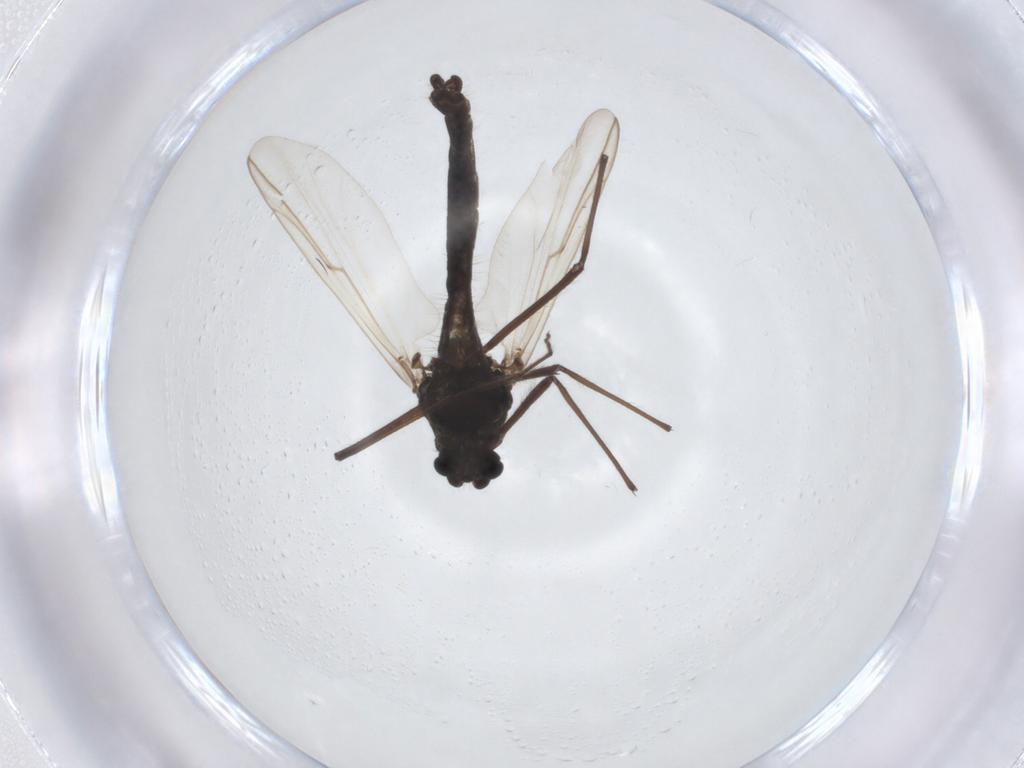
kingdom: Animalia
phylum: Arthropoda
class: Insecta
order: Diptera
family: Chironomidae
